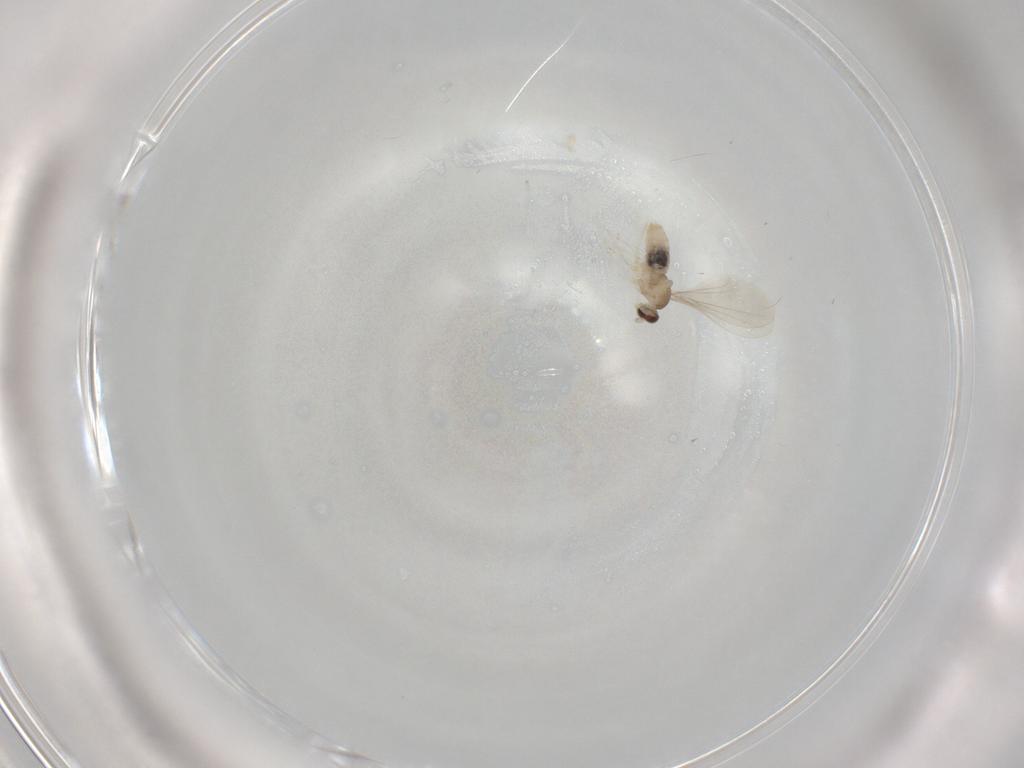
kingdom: Animalia
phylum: Arthropoda
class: Insecta
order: Diptera
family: Cecidomyiidae
